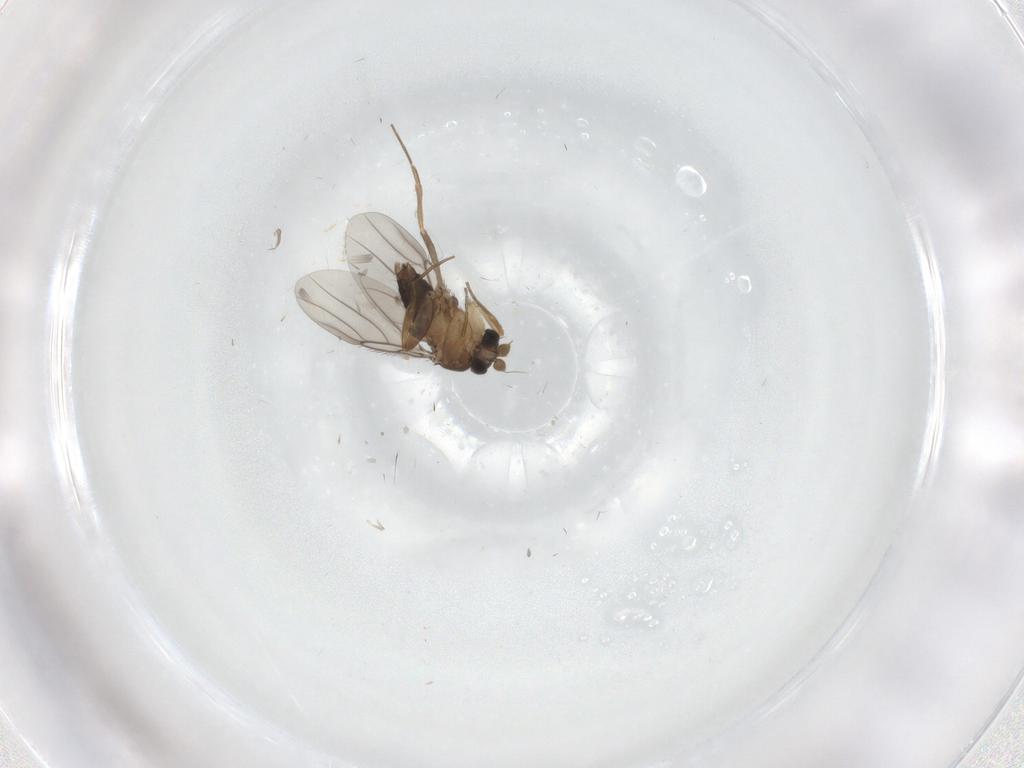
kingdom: Animalia
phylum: Arthropoda
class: Insecta
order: Diptera
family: Phoridae
